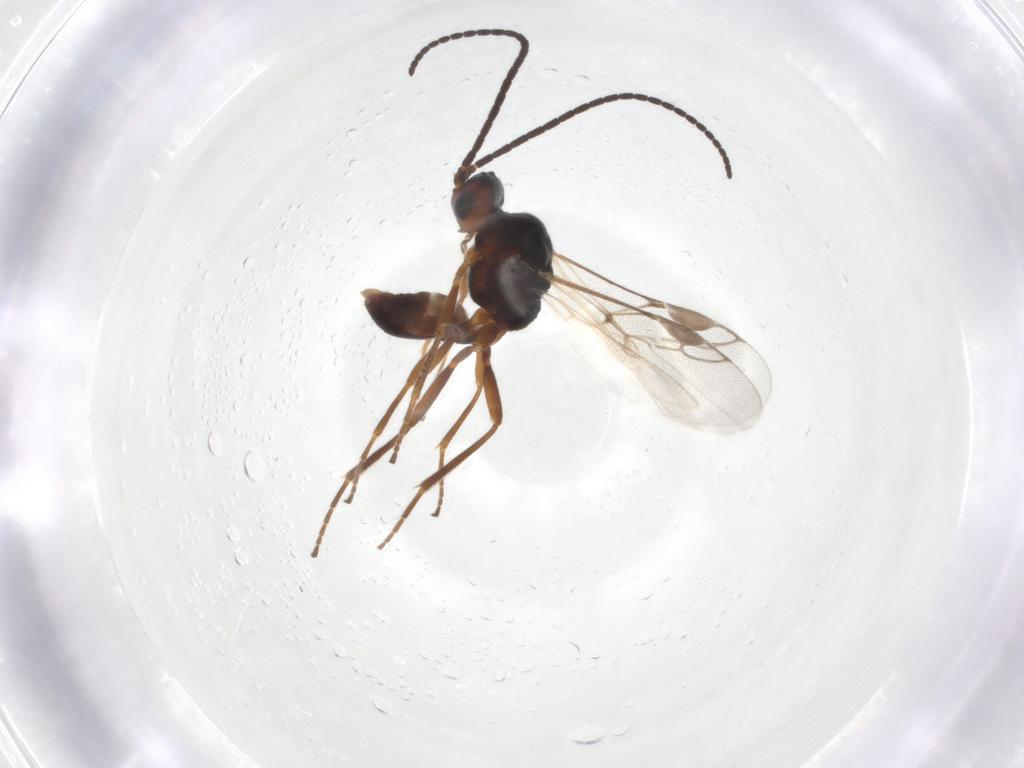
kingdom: Animalia
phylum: Arthropoda
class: Insecta
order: Hymenoptera
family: Braconidae
